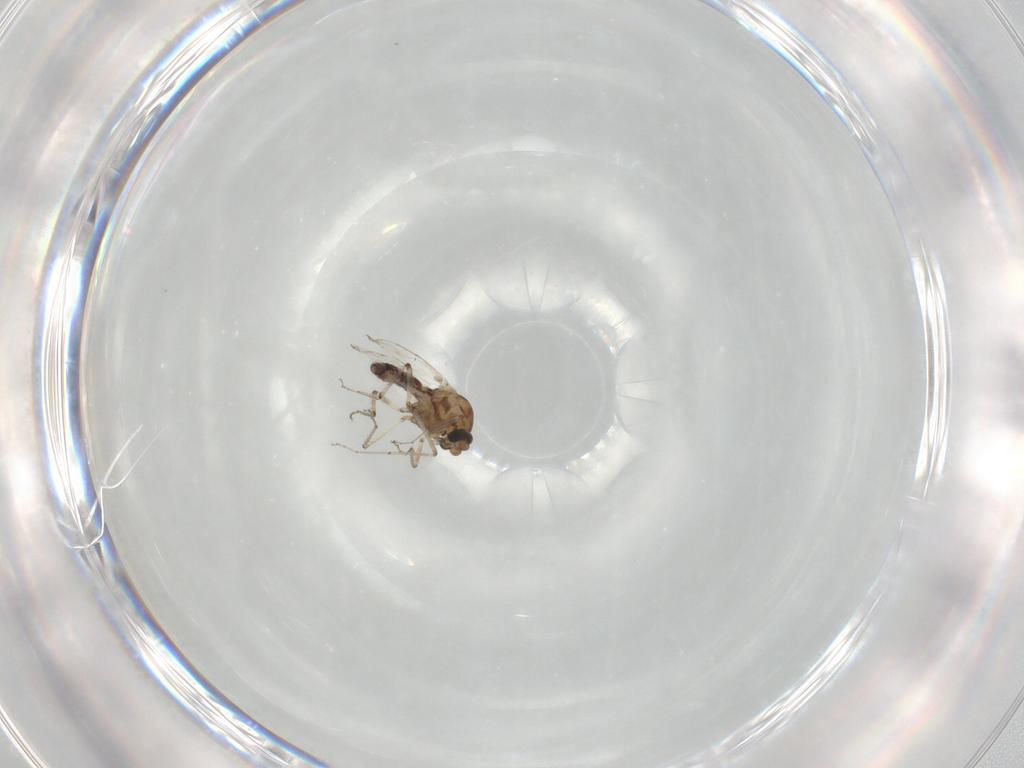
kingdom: Animalia
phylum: Arthropoda
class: Insecta
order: Diptera
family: Ceratopogonidae
